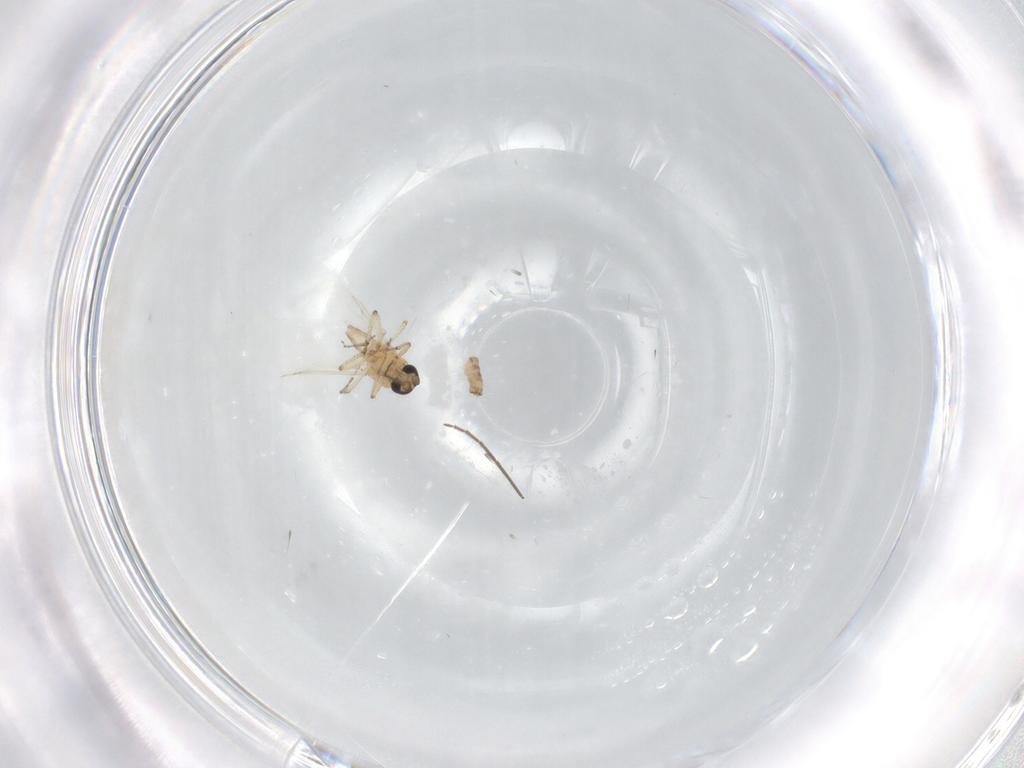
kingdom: Animalia
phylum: Arthropoda
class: Insecta
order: Diptera
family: Ceratopogonidae
